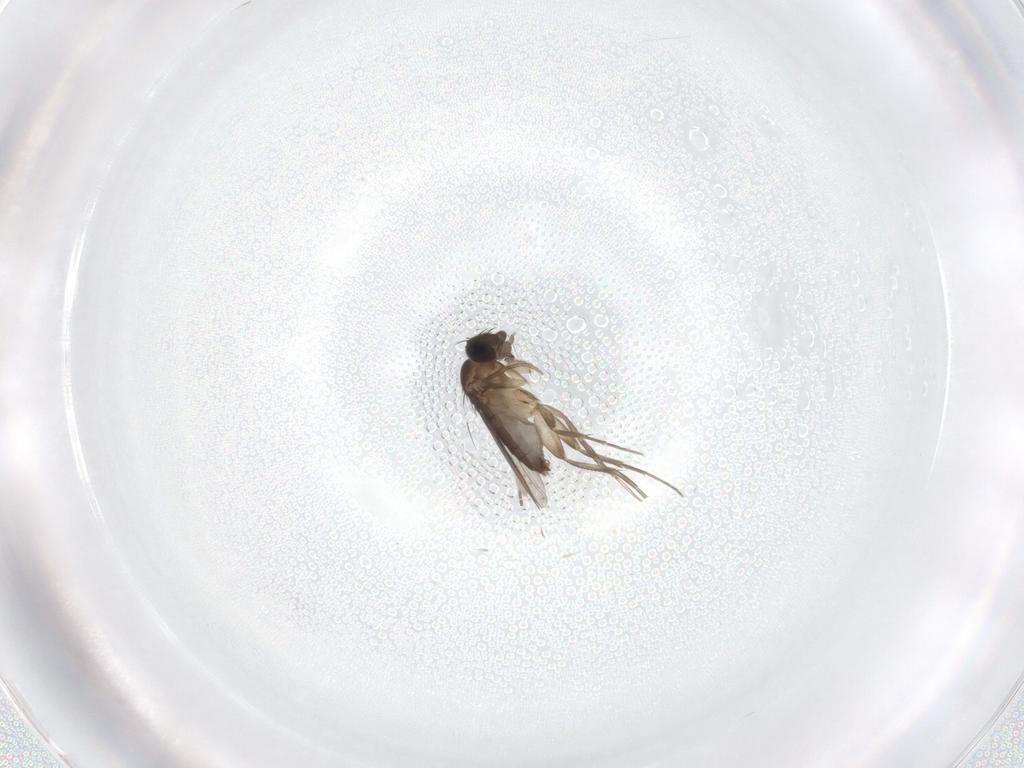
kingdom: Animalia
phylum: Arthropoda
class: Insecta
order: Diptera
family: Phoridae
